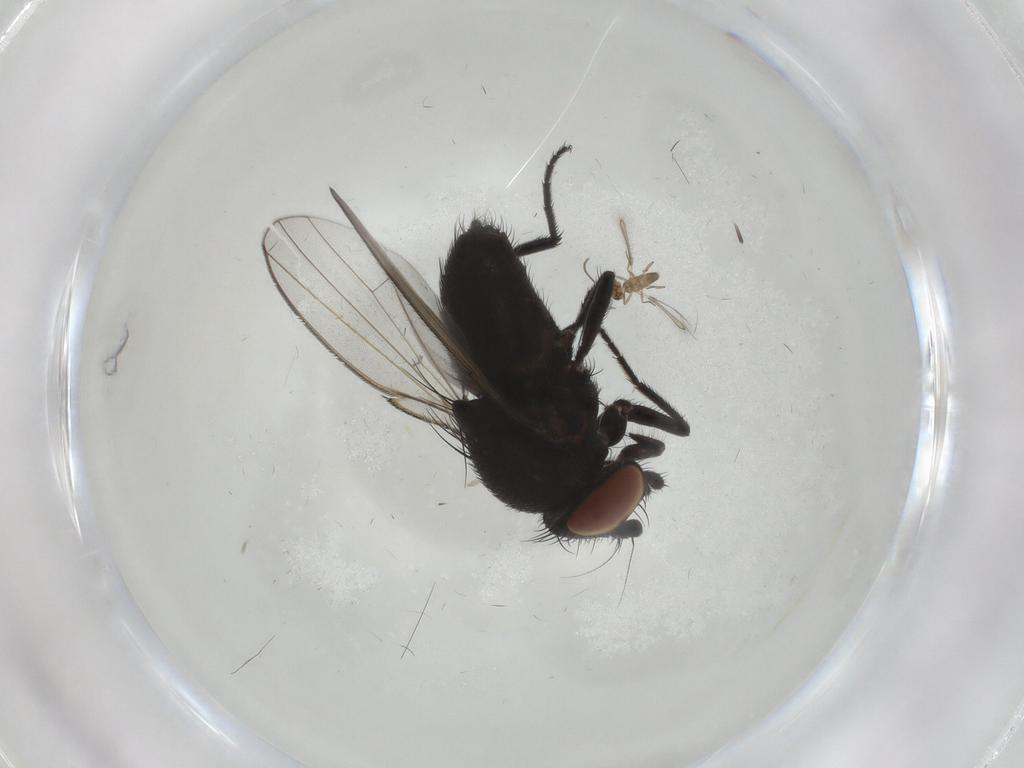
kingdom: Animalia
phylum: Arthropoda
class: Insecta
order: Diptera
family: Milichiidae
